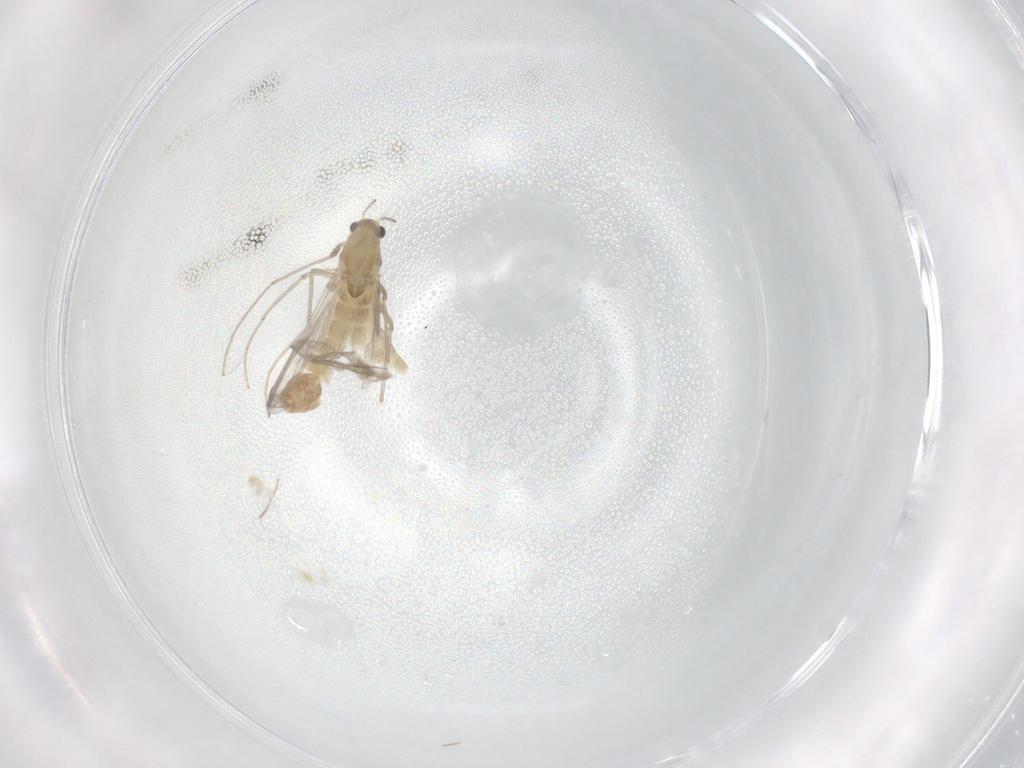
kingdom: Animalia
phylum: Arthropoda
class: Insecta
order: Diptera
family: Chironomidae
